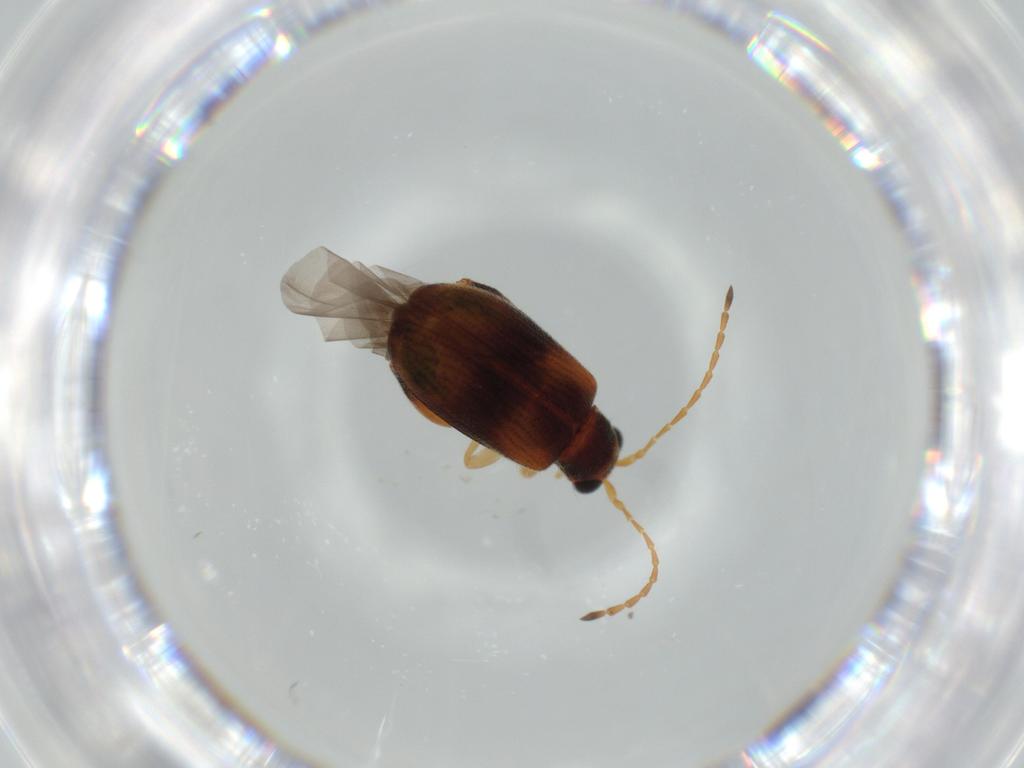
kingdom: Animalia
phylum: Arthropoda
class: Insecta
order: Coleoptera
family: Chrysomelidae
